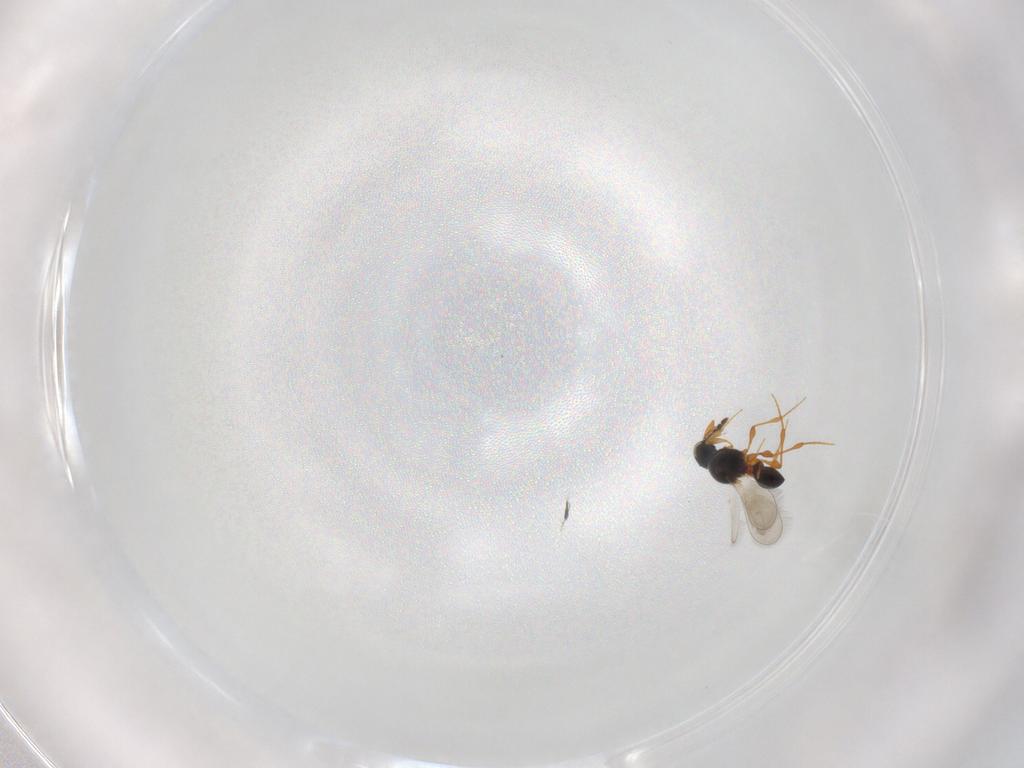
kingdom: Animalia
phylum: Arthropoda
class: Insecta
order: Hymenoptera
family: Platygastridae
